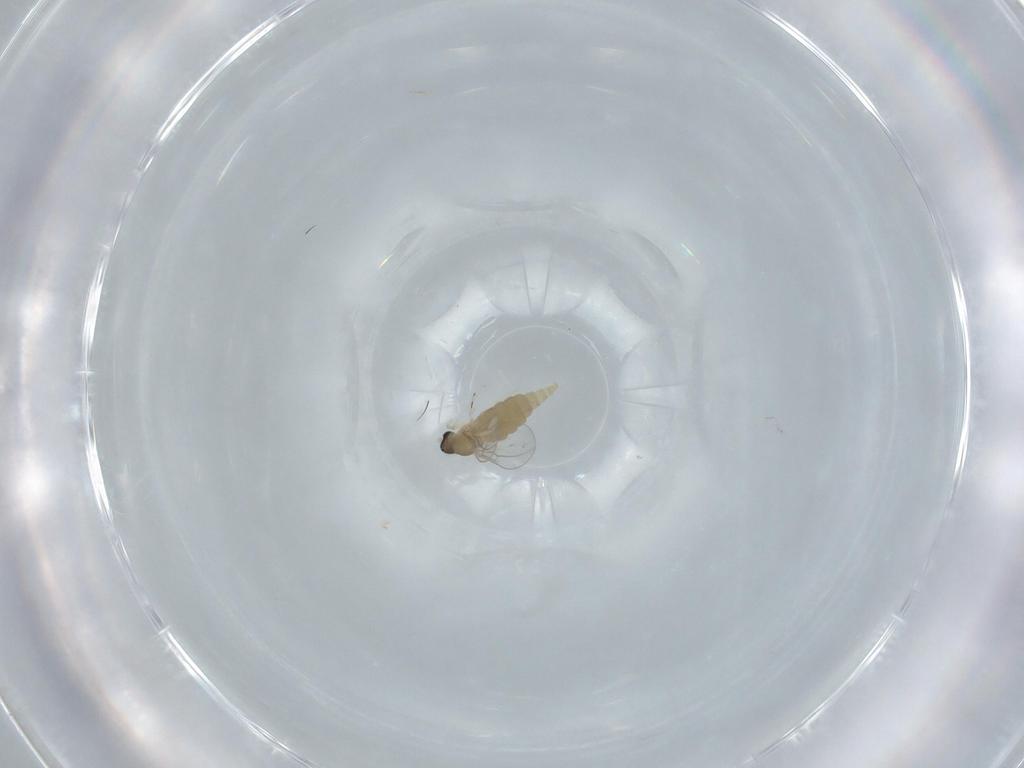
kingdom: Animalia
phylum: Arthropoda
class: Insecta
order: Diptera
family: Cecidomyiidae
